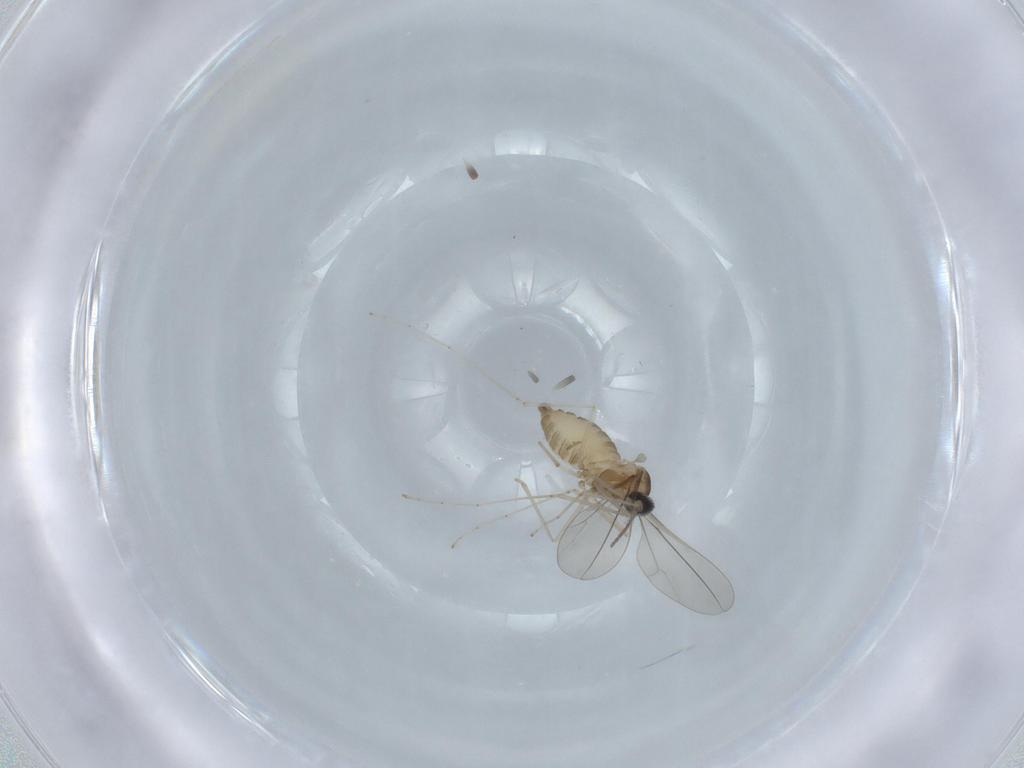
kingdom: Animalia
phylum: Arthropoda
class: Insecta
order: Diptera
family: Cecidomyiidae
